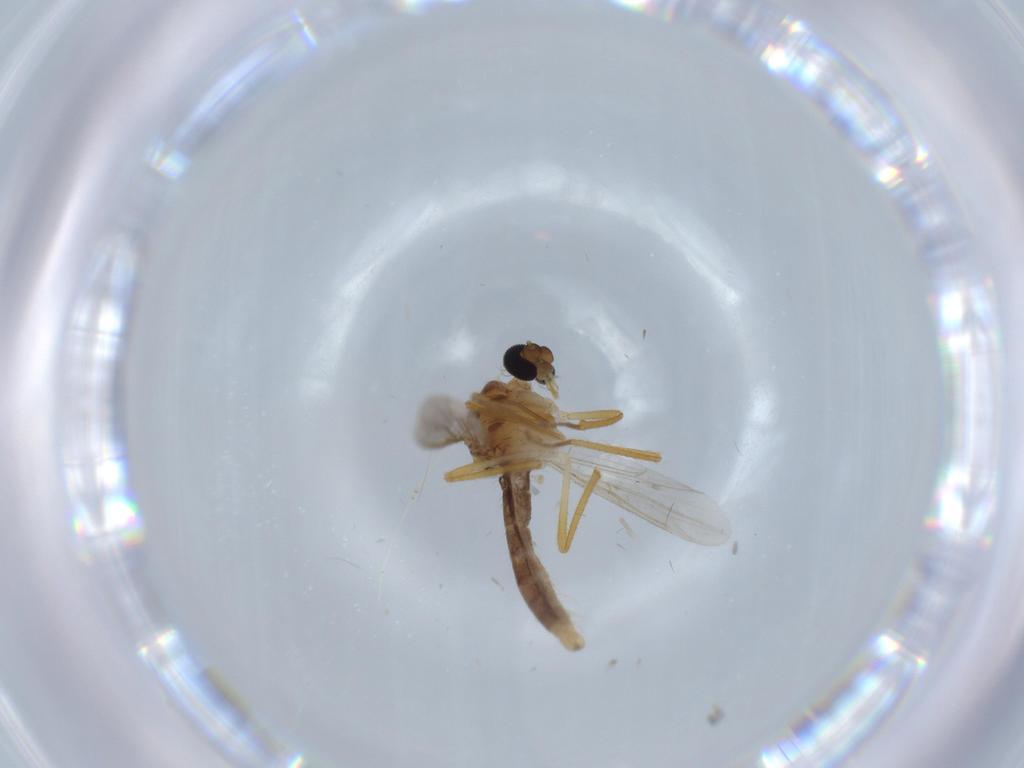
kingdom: Animalia
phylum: Arthropoda
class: Insecta
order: Diptera
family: Ceratopogonidae
